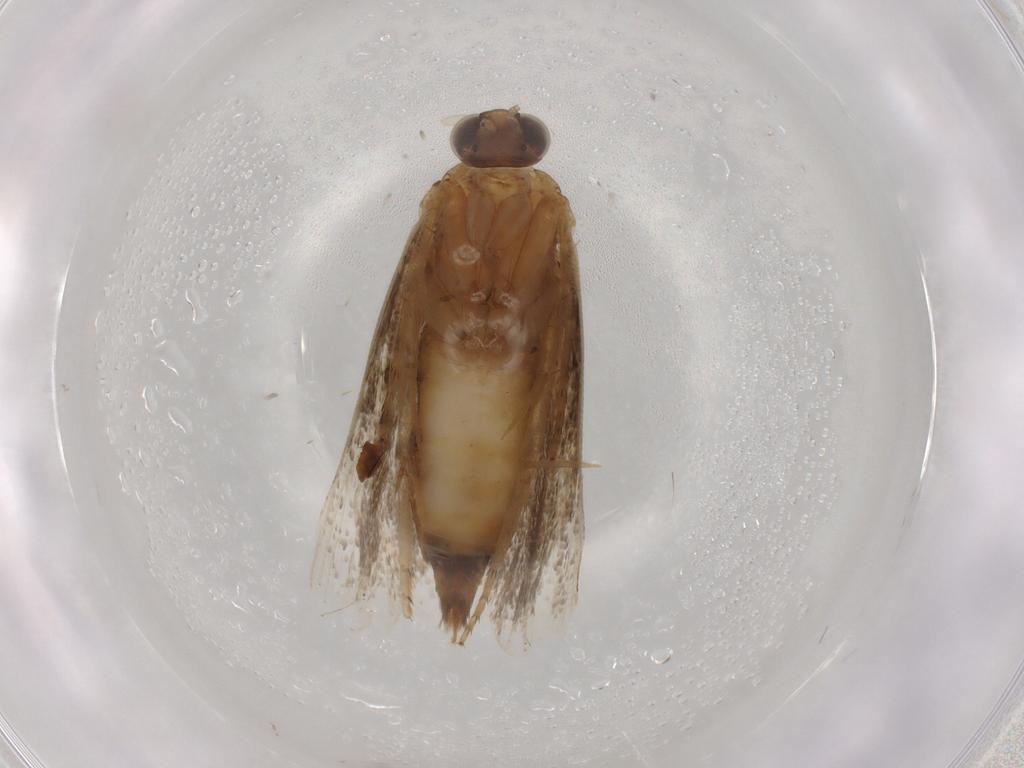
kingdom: Animalia
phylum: Arthropoda
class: Insecta
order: Lepidoptera
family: Tortricidae
